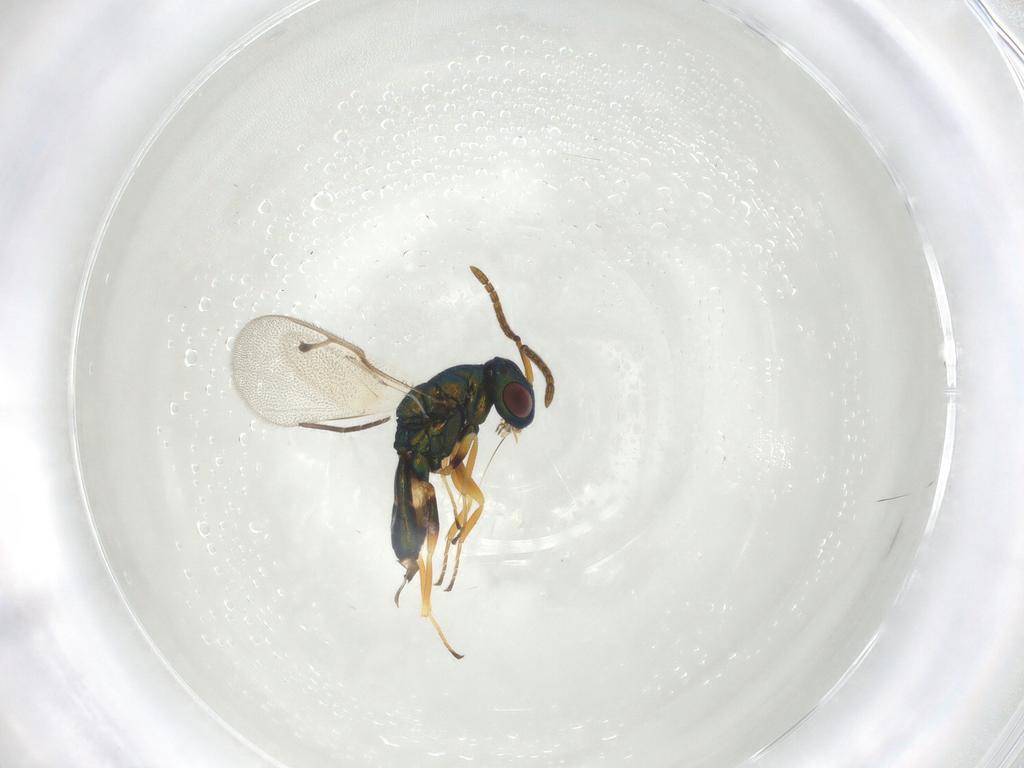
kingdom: Animalia
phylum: Arthropoda
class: Insecta
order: Hymenoptera
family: Pteromalidae
